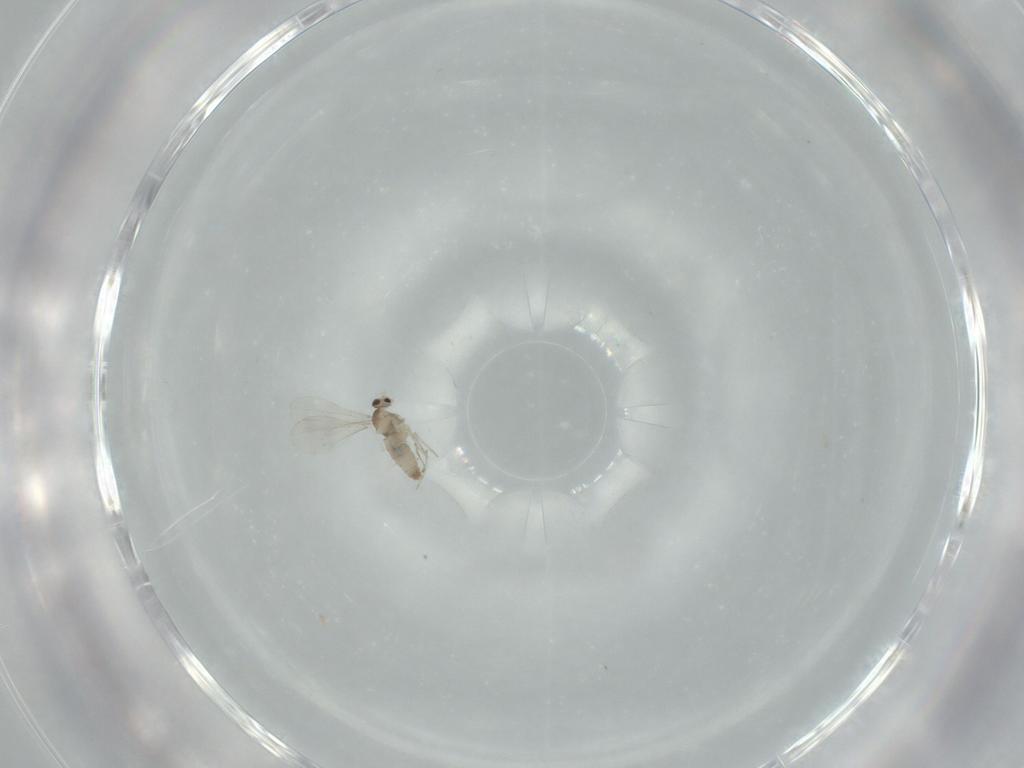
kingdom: Animalia
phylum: Arthropoda
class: Insecta
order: Diptera
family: Cecidomyiidae
